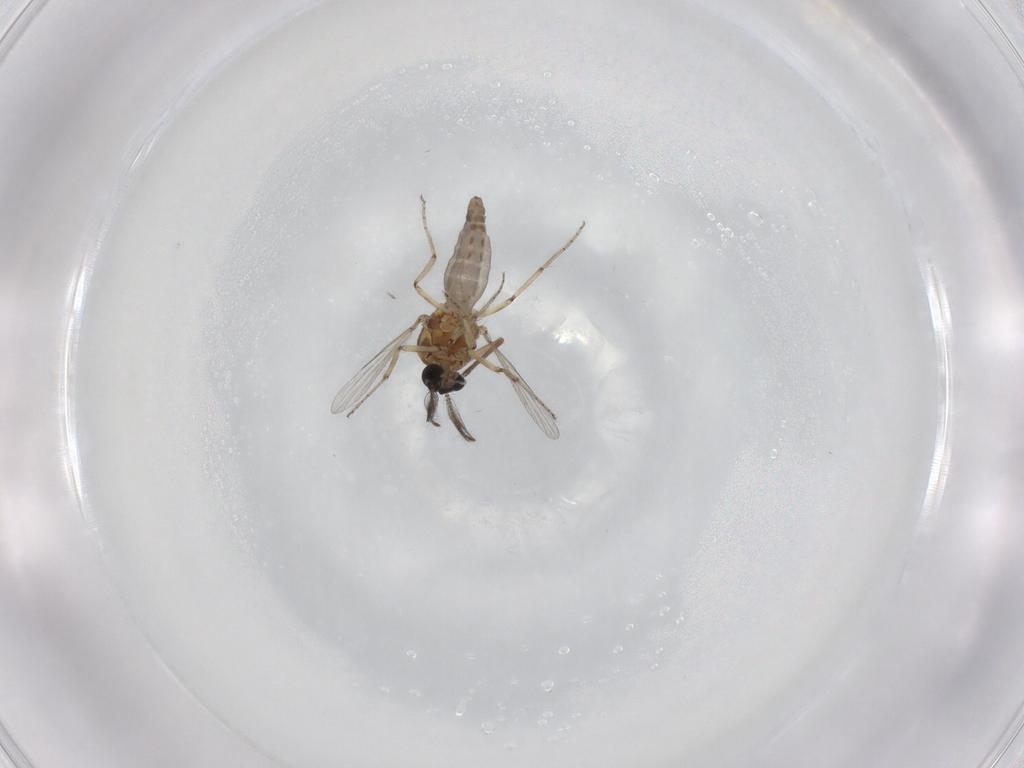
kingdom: Animalia
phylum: Arthropoda
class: Insecta
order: Diptera
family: Ceratopogonidae
